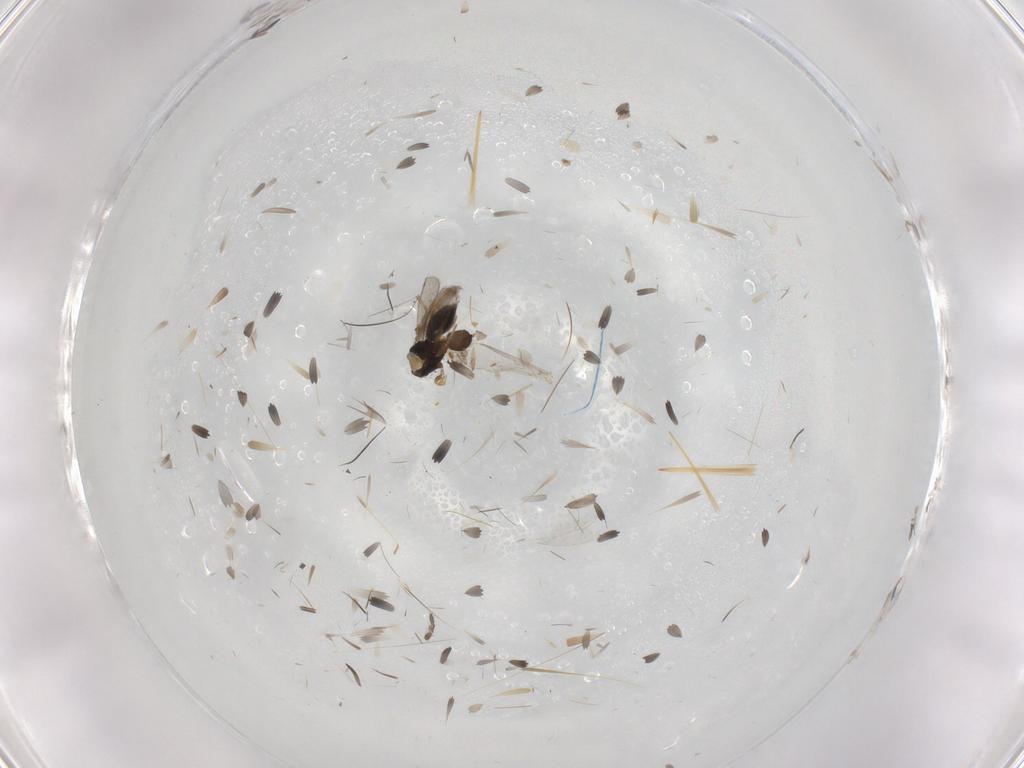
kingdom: Animalia
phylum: Arthropoda
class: Insecta
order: Hymenoptera
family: Scelionidae
